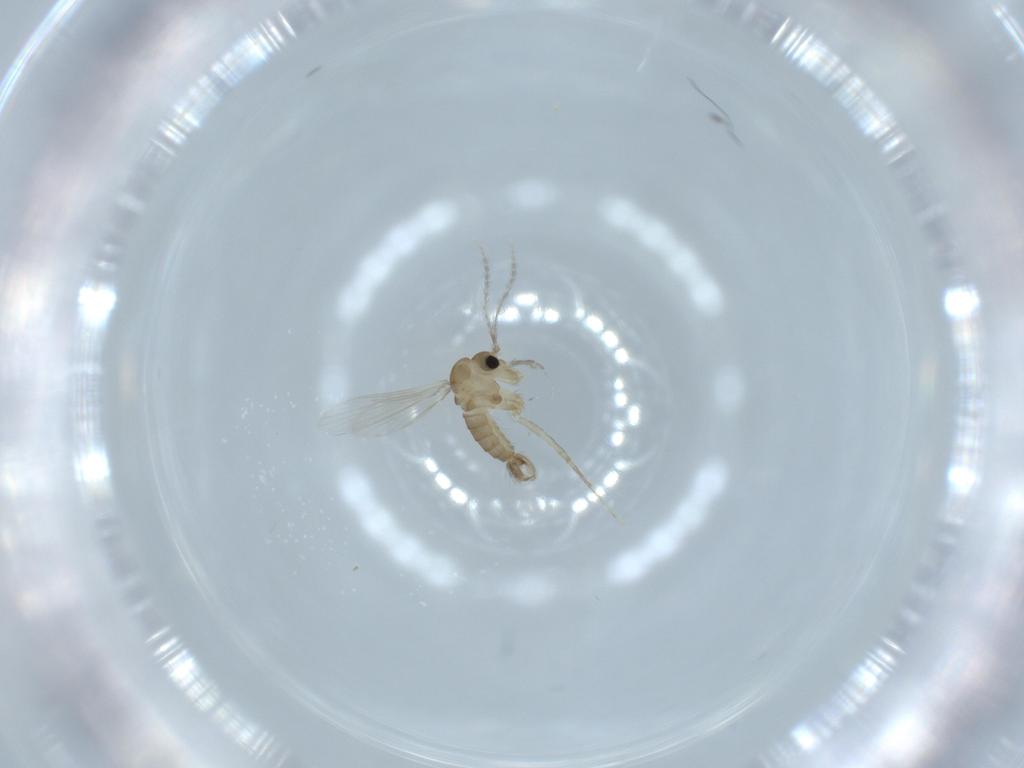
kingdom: Animalia
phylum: Arthropoda
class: Insecta
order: Diptera
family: Psychodidae
